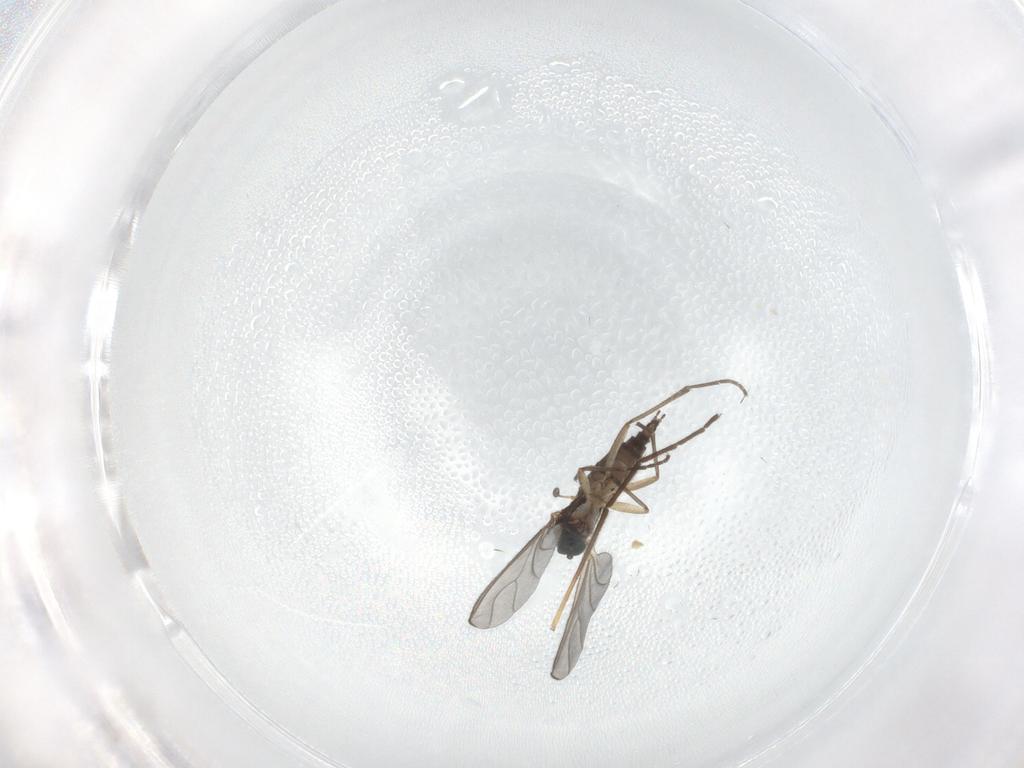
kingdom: Animalia
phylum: Arthropoda
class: Insecta
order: Diptera
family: Sciaridae
